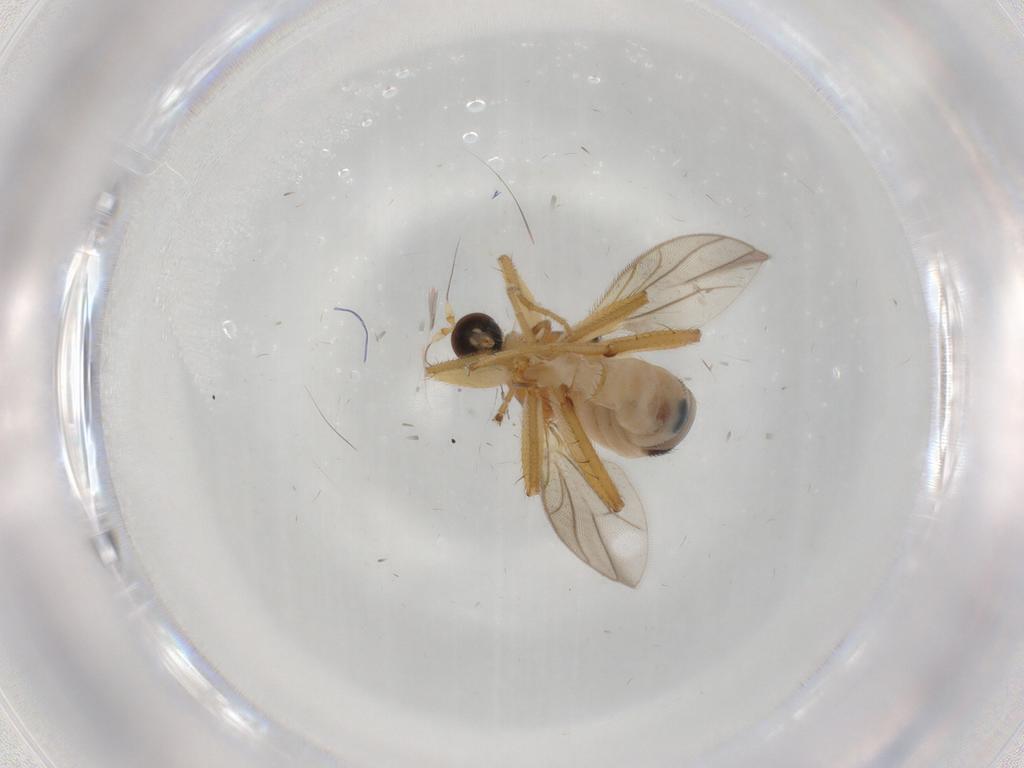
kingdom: Animalia
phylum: Arthropoda
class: Insecta
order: Diptera
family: Hybotidae
